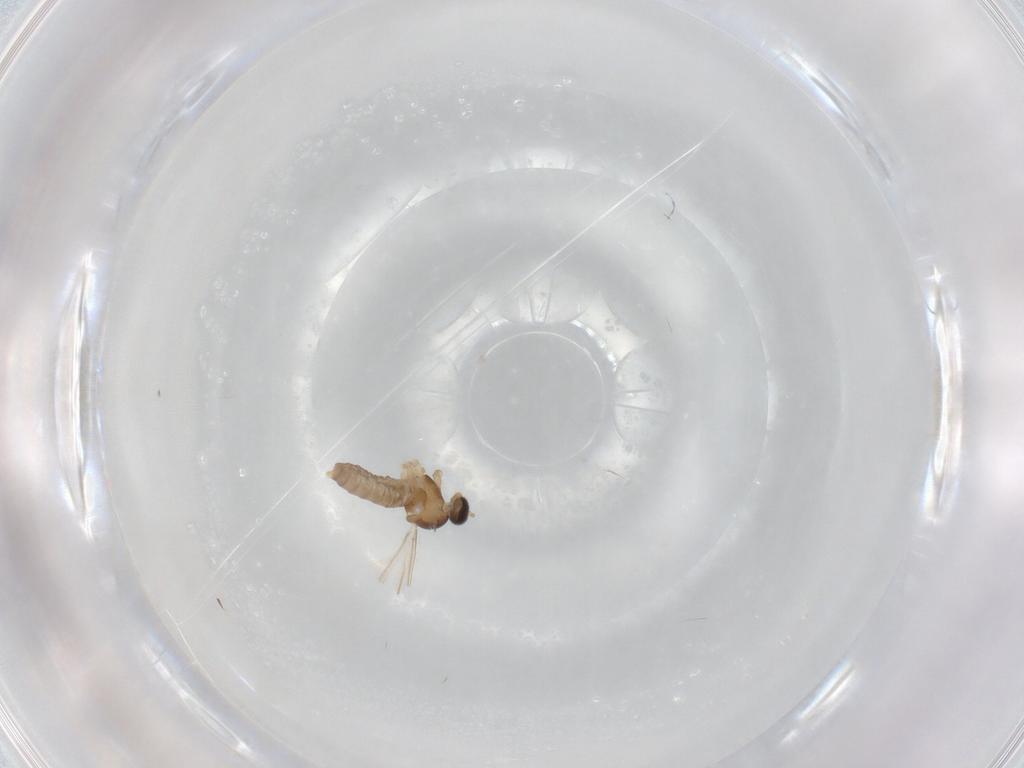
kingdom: Animalia
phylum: Arthropoda
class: Insecta
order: Diptera
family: Cecidomyiidae
